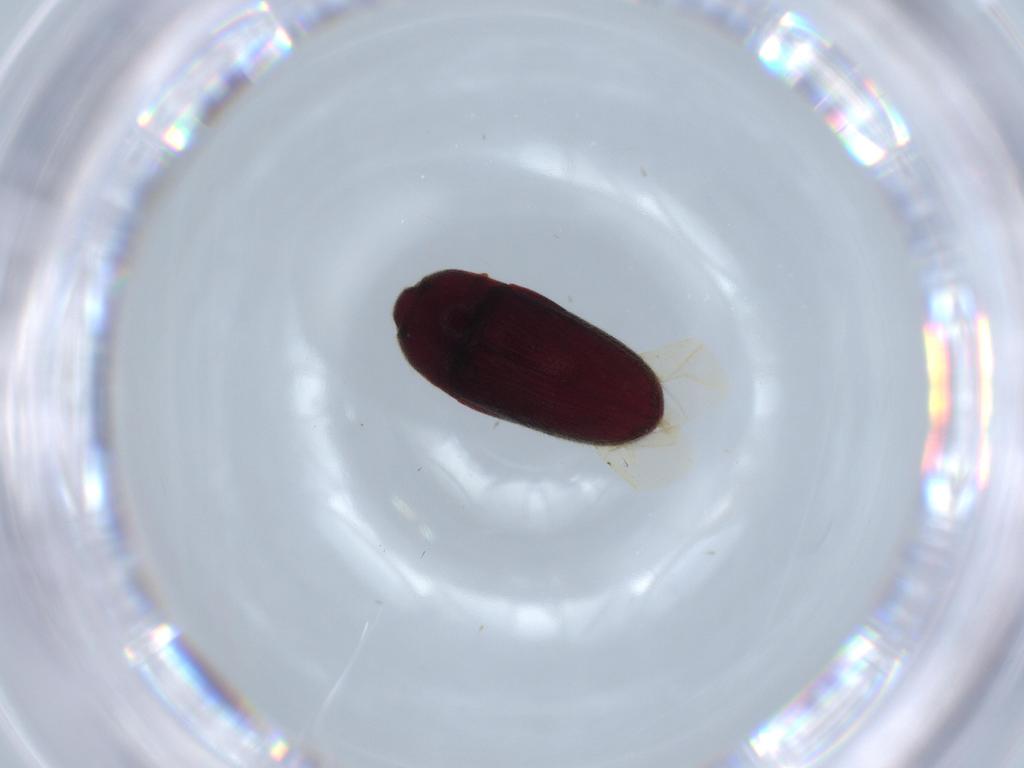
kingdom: Animalia
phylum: Arthropoda
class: Insecta
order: Coleoptera
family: Throscidae
